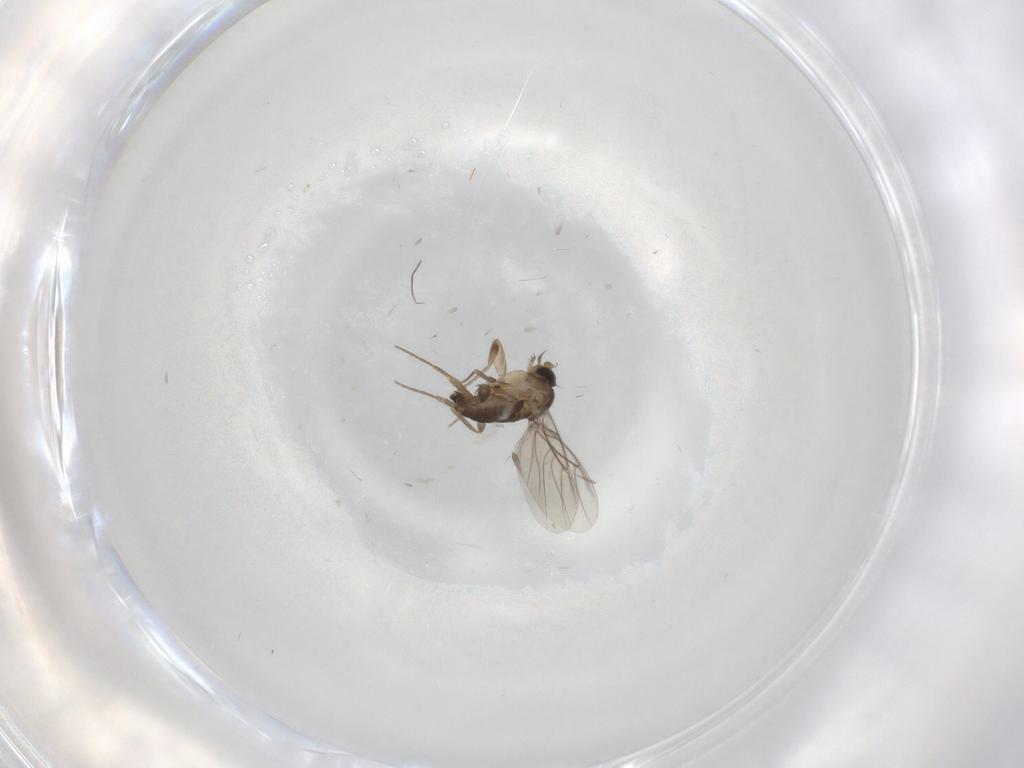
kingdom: Animalia
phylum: Arthropoda
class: Insecta
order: Diptera
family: Phoridae
